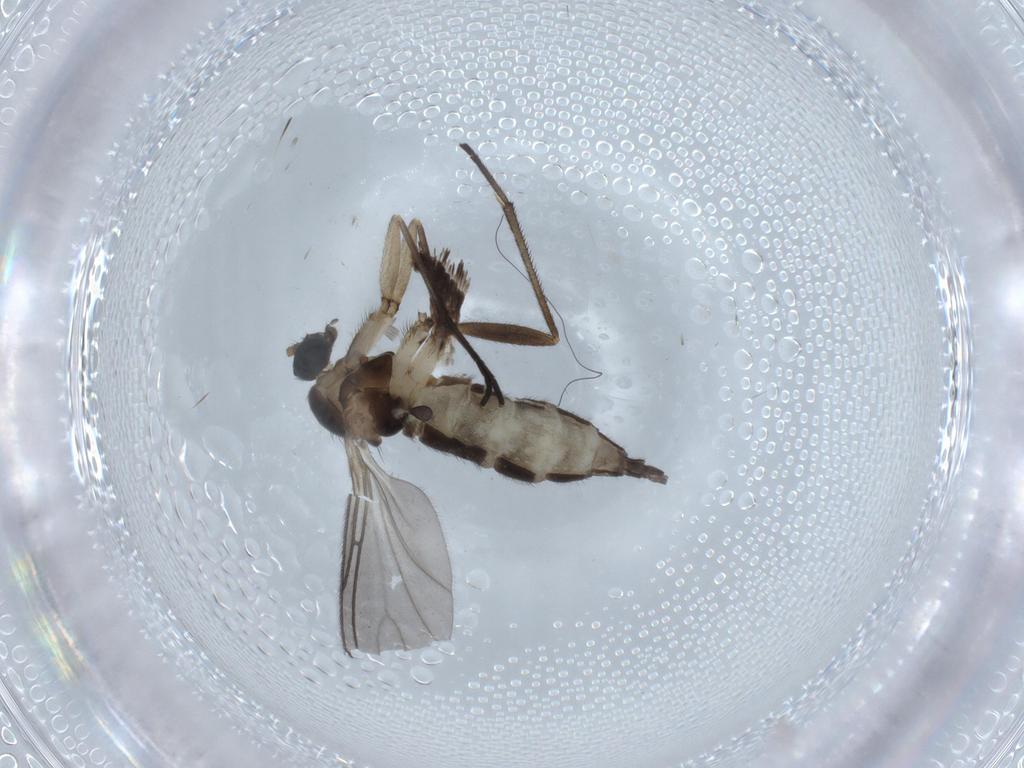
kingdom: Animalia
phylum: Arthropoda
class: Insecta
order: Diptera
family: Sciaridae
